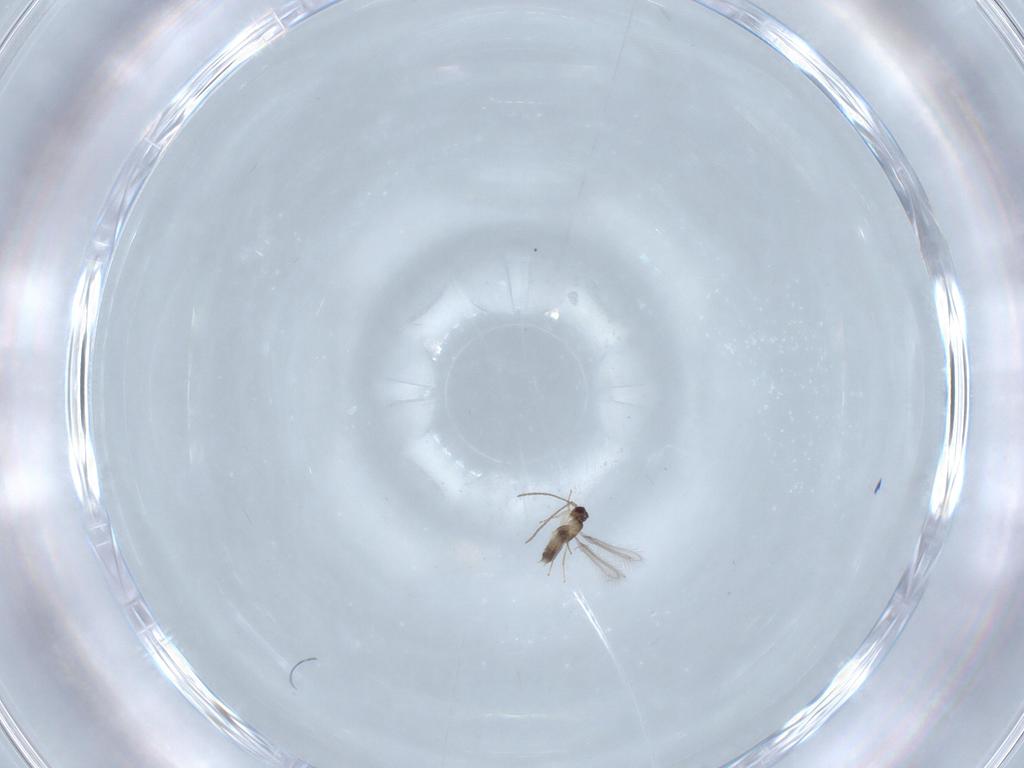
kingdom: Animalia
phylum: Arthropoda
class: Insecta
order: Hymenoptera
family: Mymaridae
